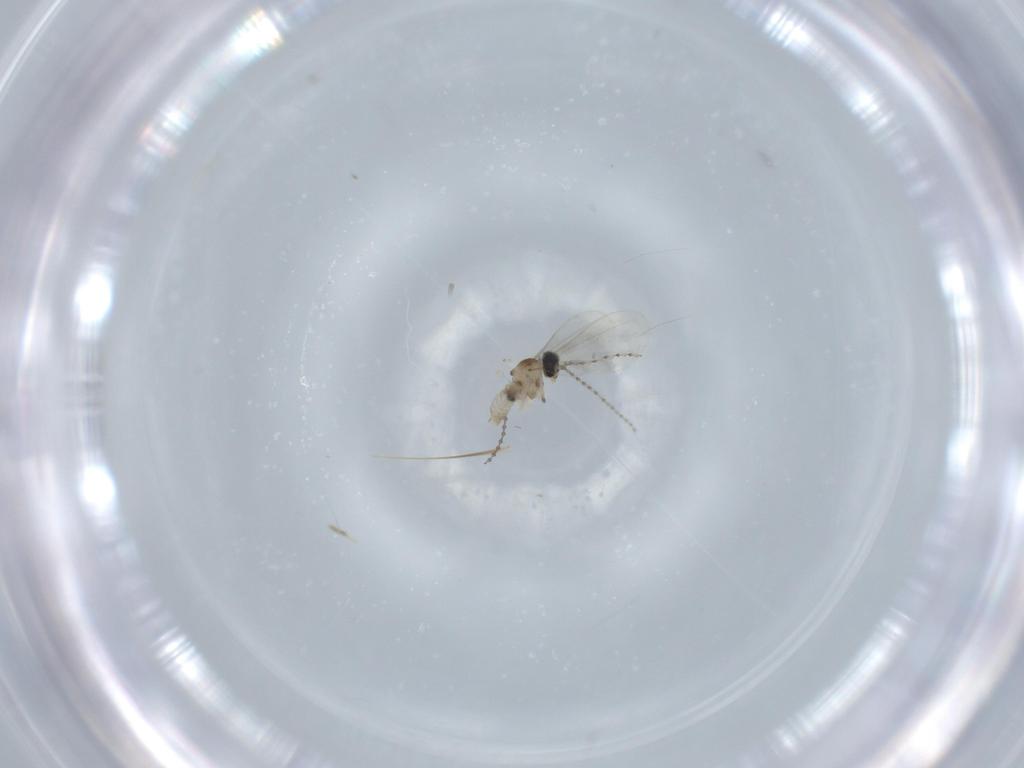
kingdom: Animalia
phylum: Arthropoda
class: Insecta
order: Diptera
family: Cecidomyiidae
